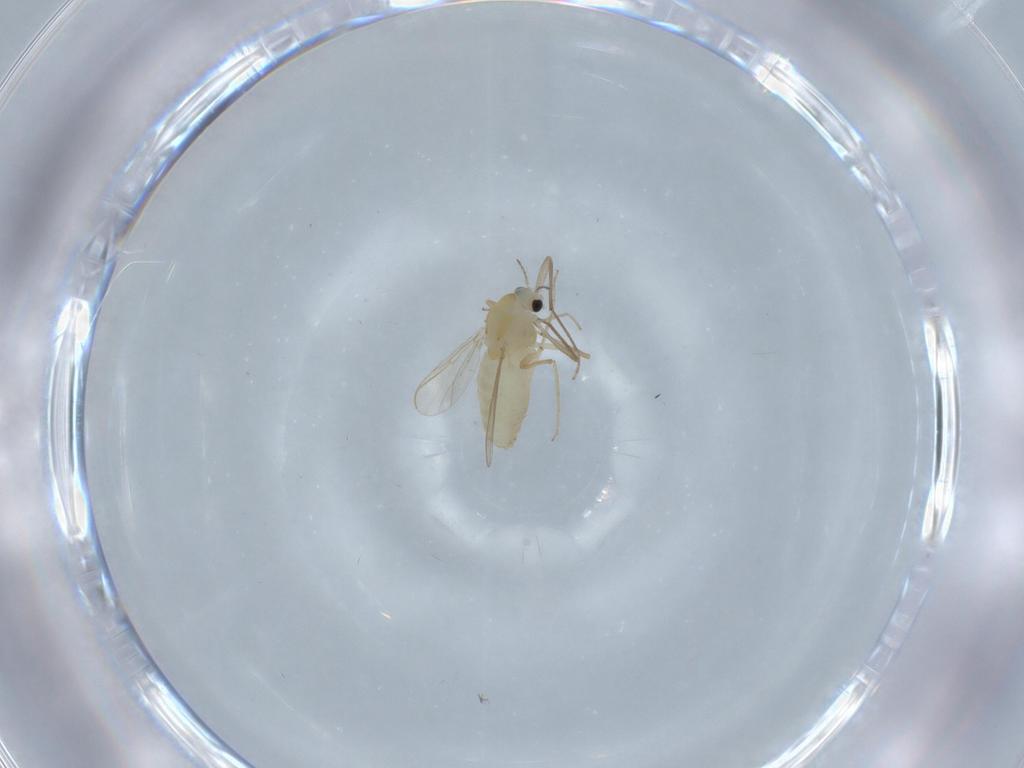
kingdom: Animalia
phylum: Arthropoda
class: Insecta
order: Diptera
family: Chironomidae
